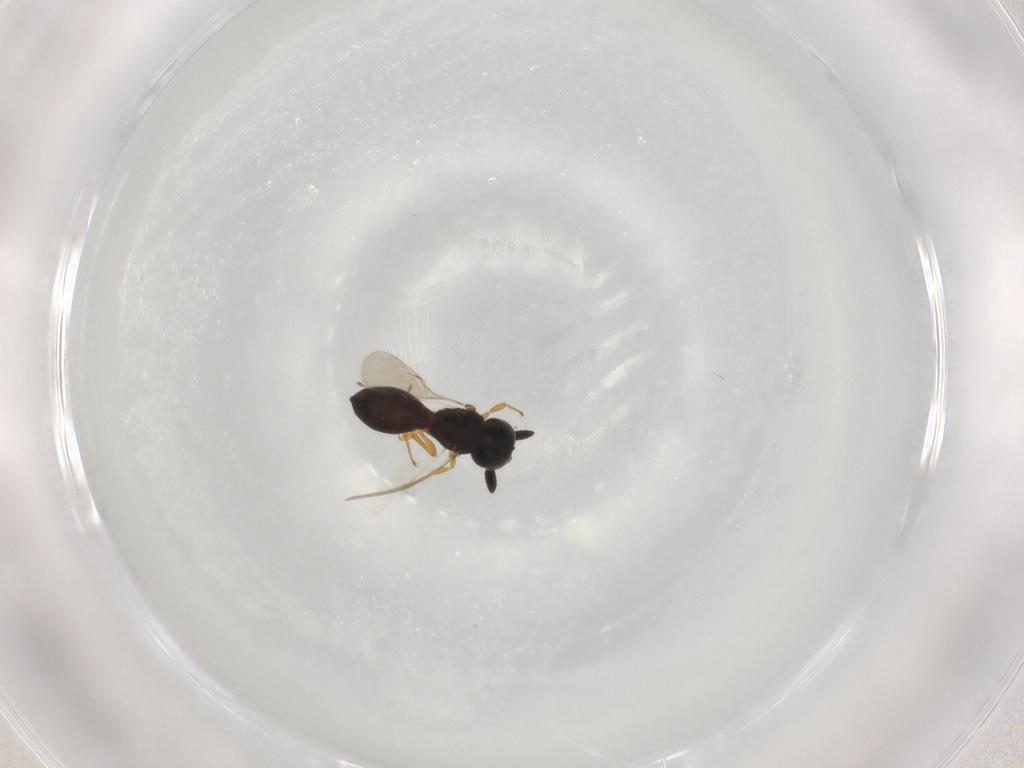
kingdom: Animalia
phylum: Arthropoda
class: Insecta
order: Hymenoptera
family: Scelionidae
